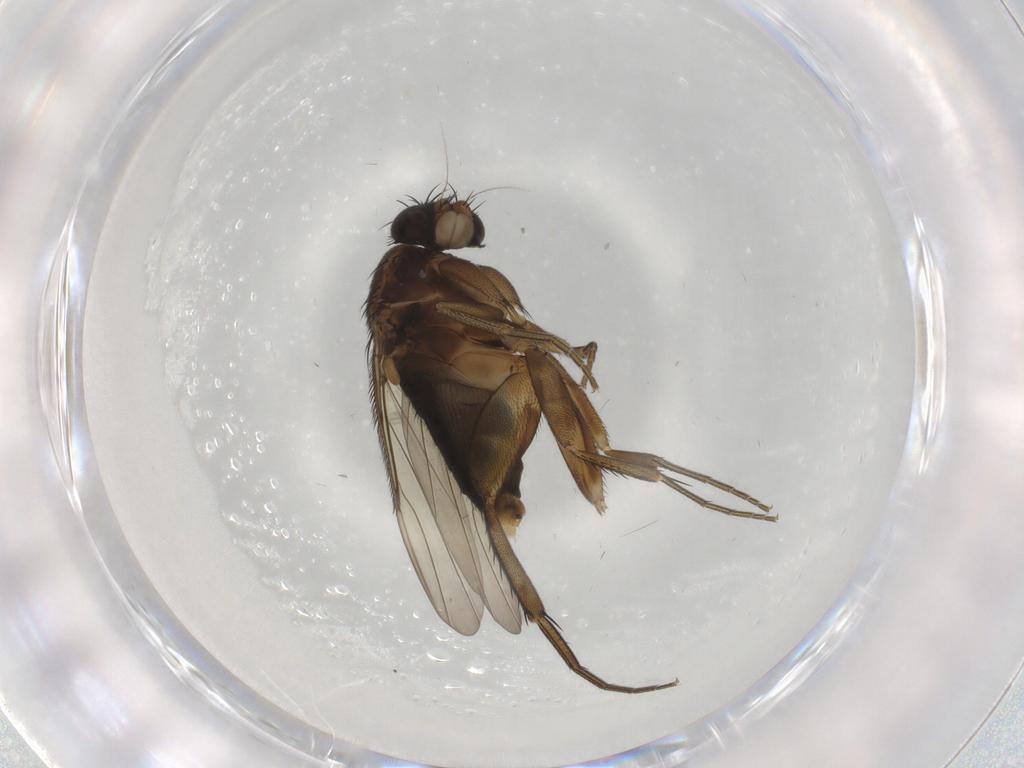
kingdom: Animalia
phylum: Arthropoda
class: Insecta
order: Diptera
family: Phoridae
